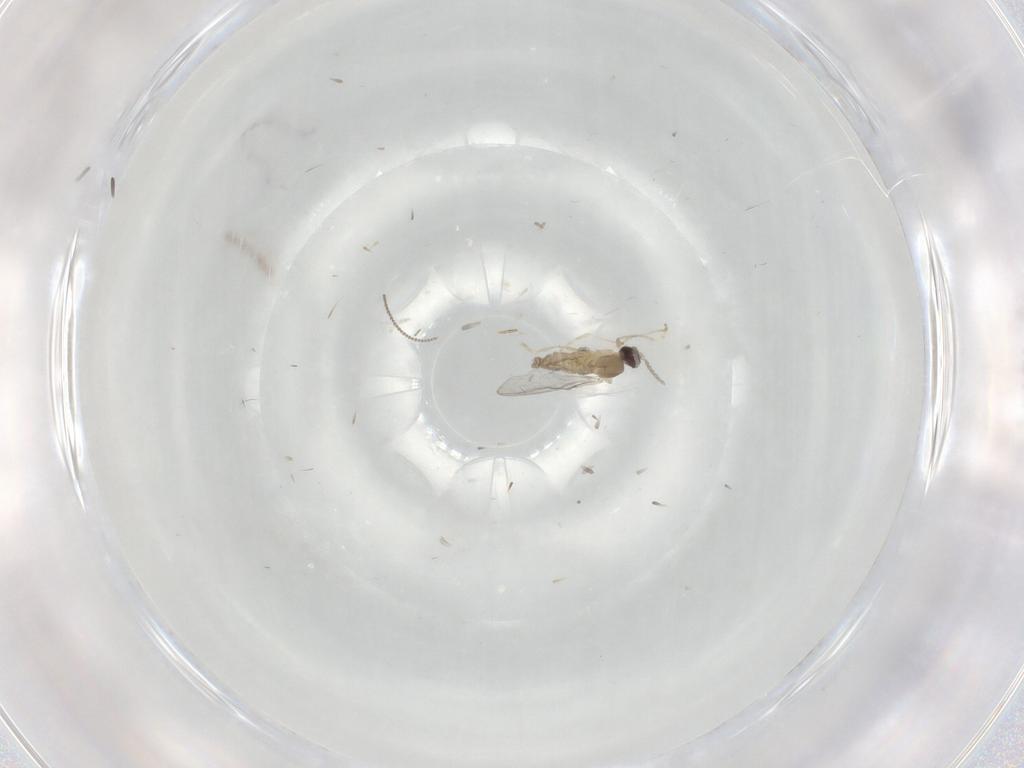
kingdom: Animalia
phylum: Arthropoda
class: Insecta
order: Diptera
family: Cecidomyiidae
